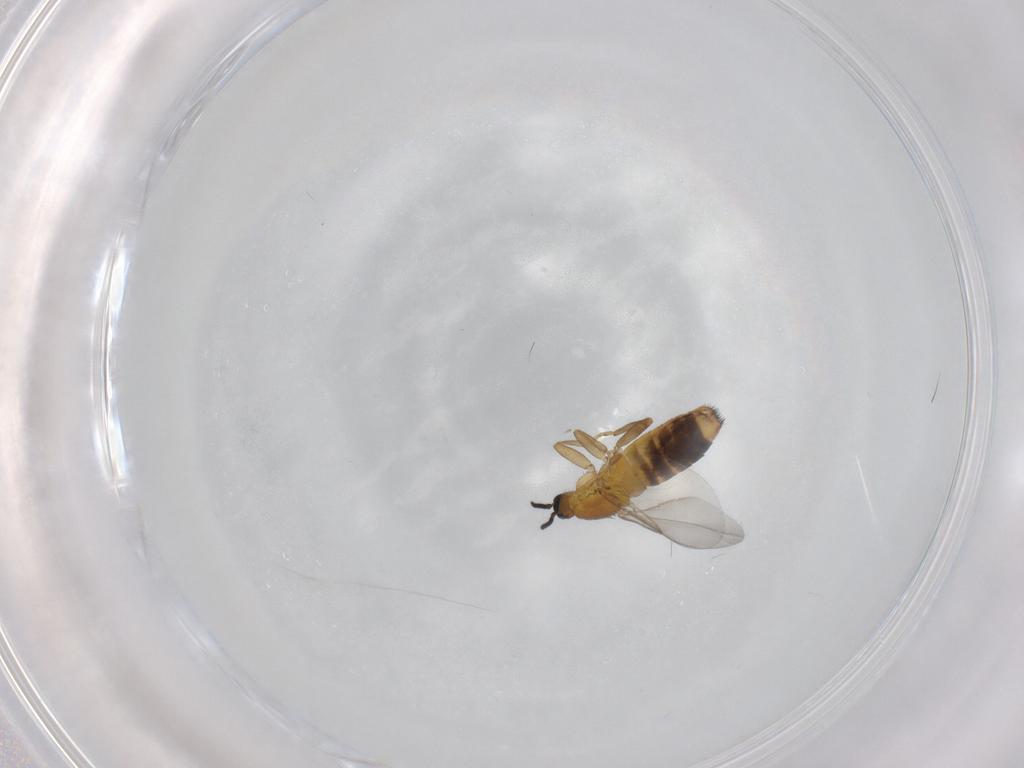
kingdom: Animalia
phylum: Arthropoda
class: Insecta
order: Diptera
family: Scatopsidae
